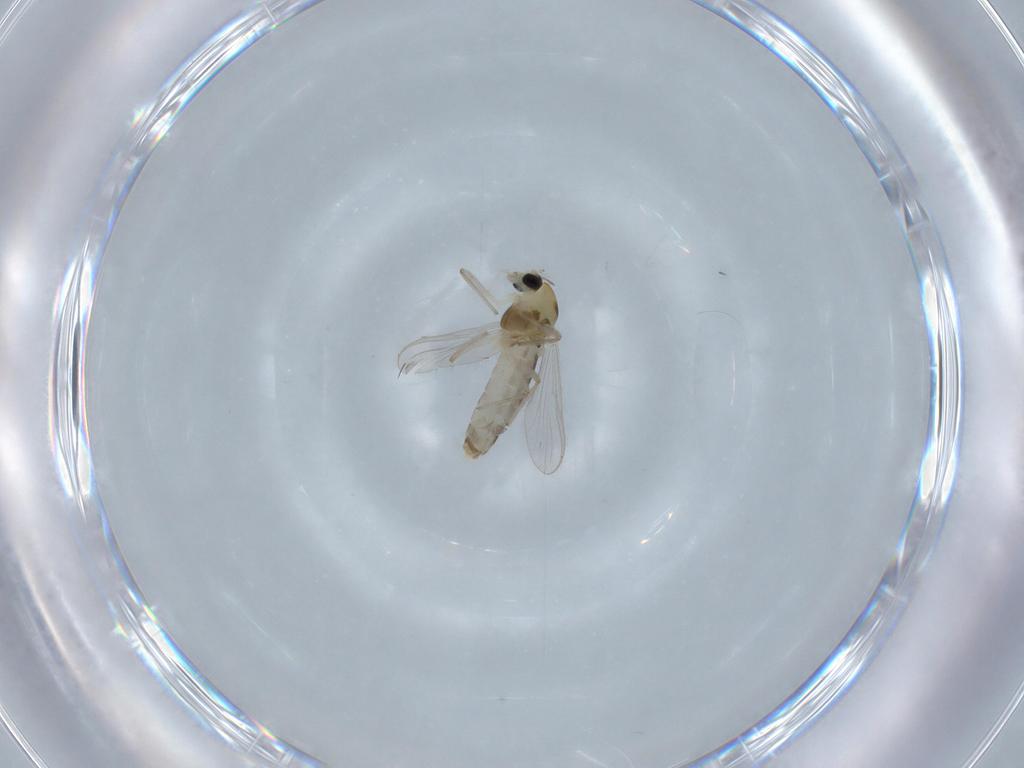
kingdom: Animalia
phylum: Arthropoda
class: Insecta
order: Diptera
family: Chironomidae
